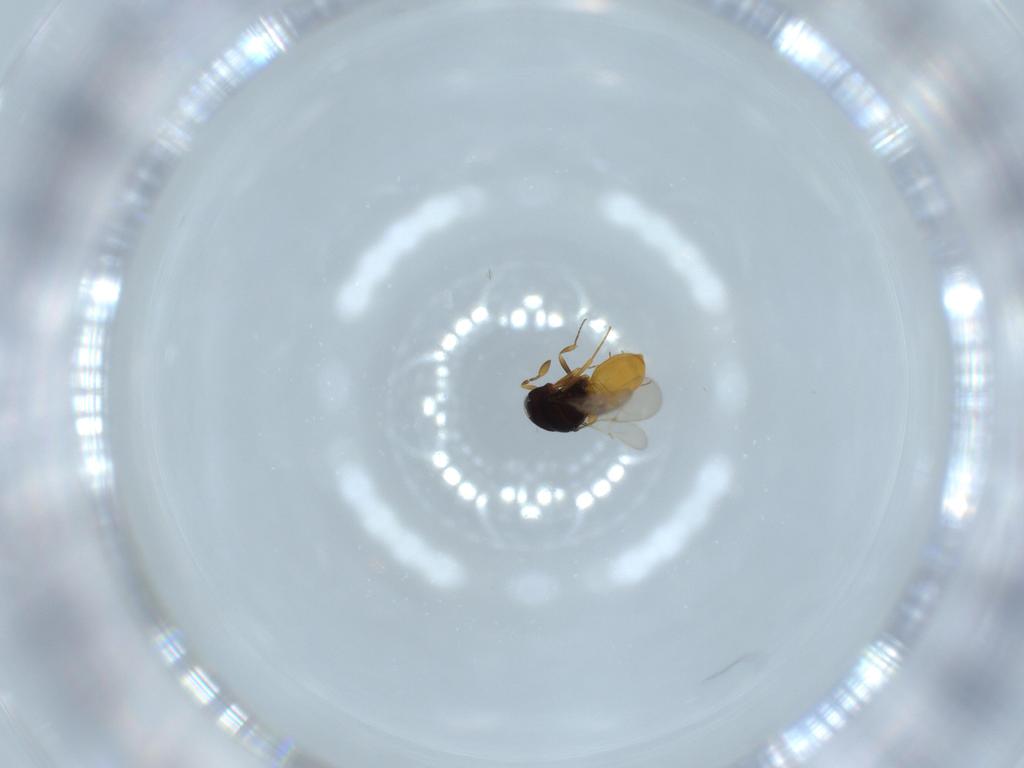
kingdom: Animalia
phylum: Arthropoda
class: Insecta
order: Hymenoptera
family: Scelionidae
